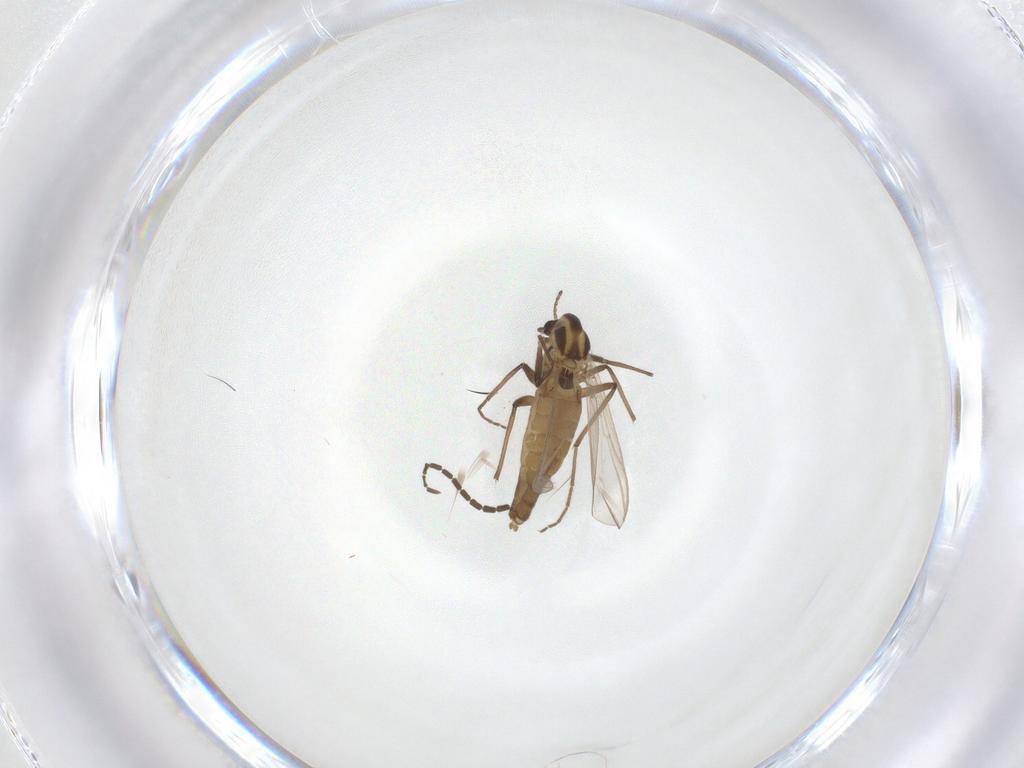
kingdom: Animalia
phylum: Arthropoda
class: Insecta
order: Diptera
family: Chironomidae
